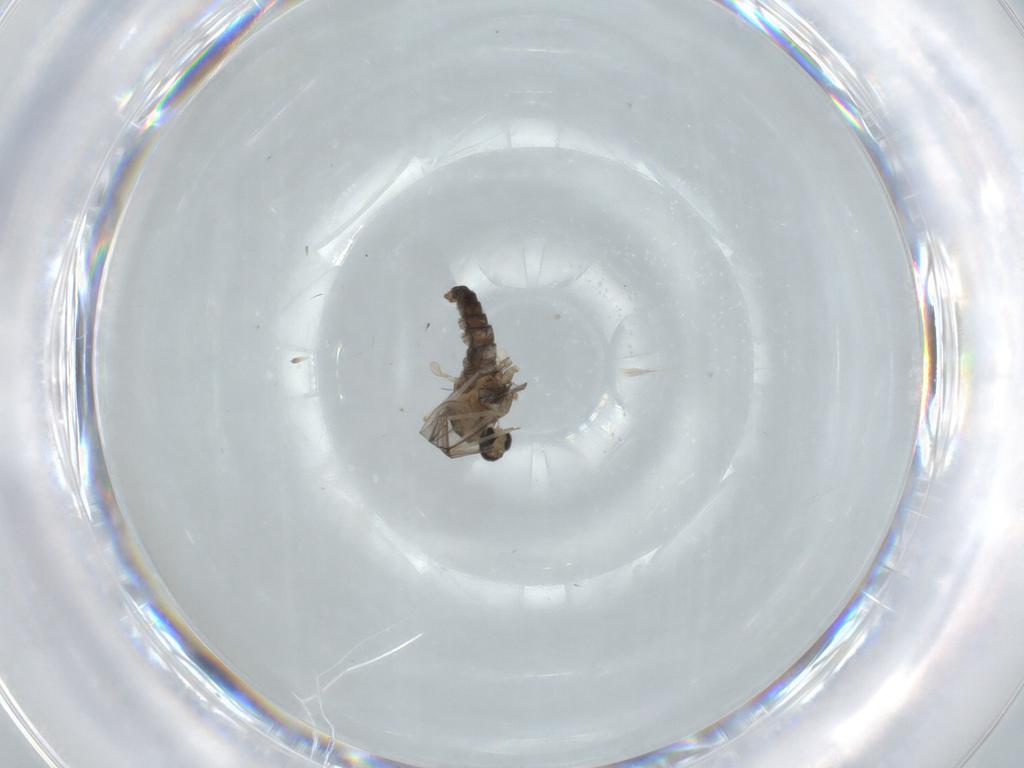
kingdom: Animalia
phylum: Arthropoda
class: Insecta
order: Diptera
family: Cecidomyiidae
